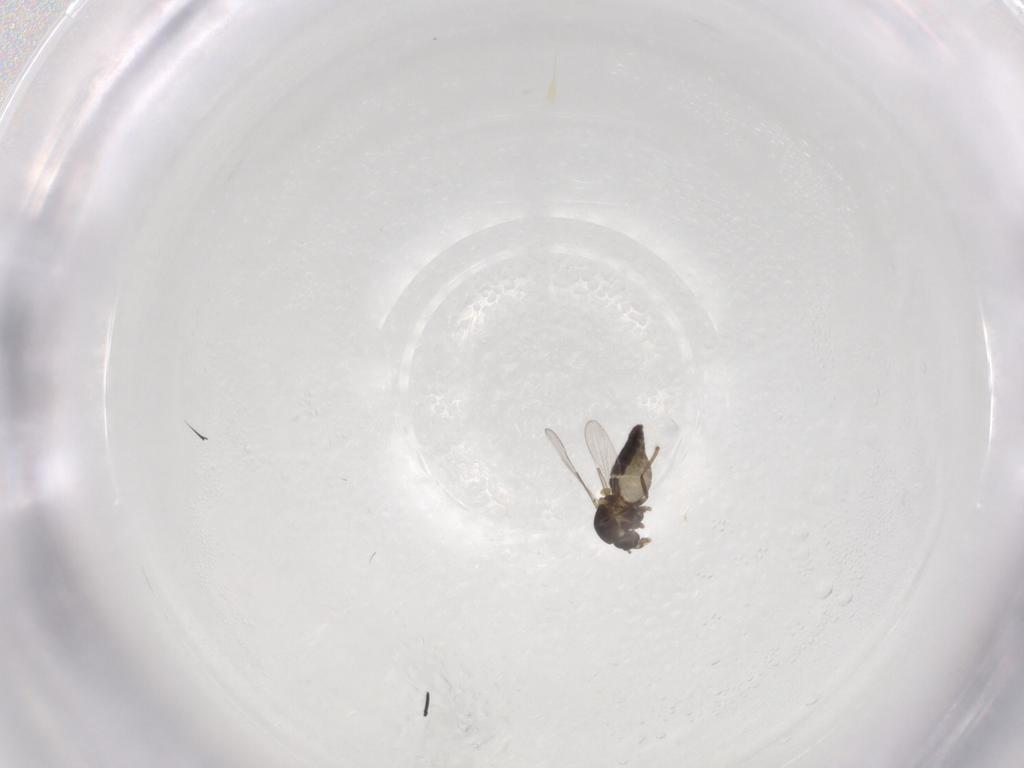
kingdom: Animalia
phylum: Arthropoda
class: Insecta
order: Diptera
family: Ceratopogonidae
